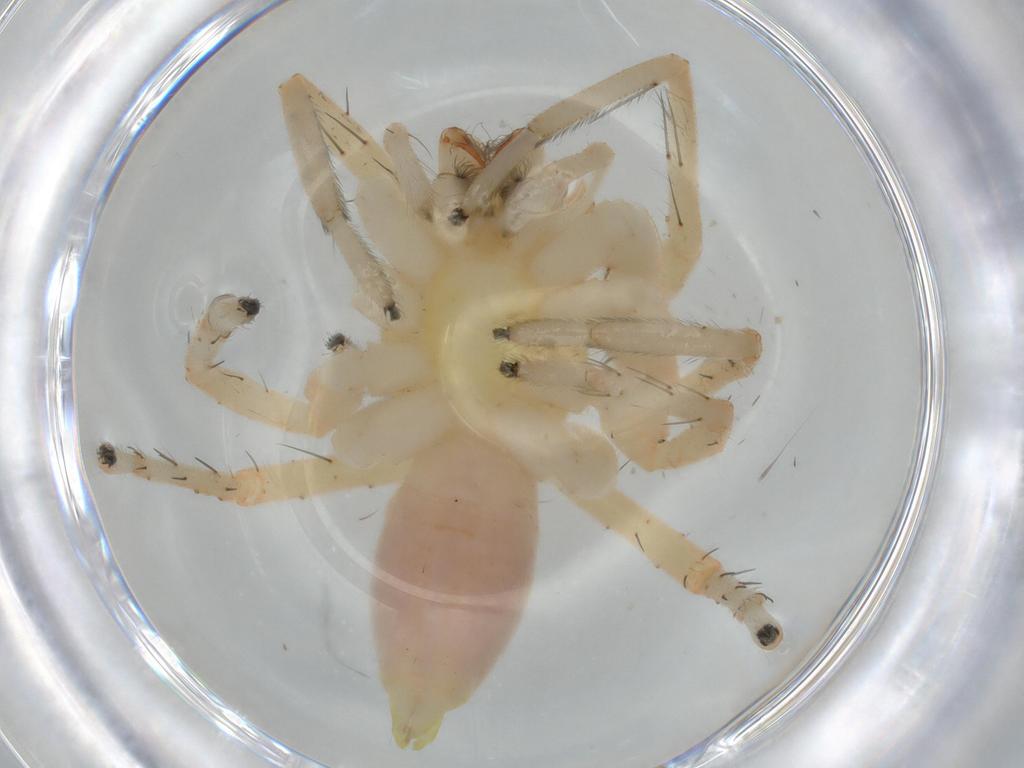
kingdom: Animalia
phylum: Arthropoda
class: Arachnida
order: Araneae
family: Anyphaenidae
